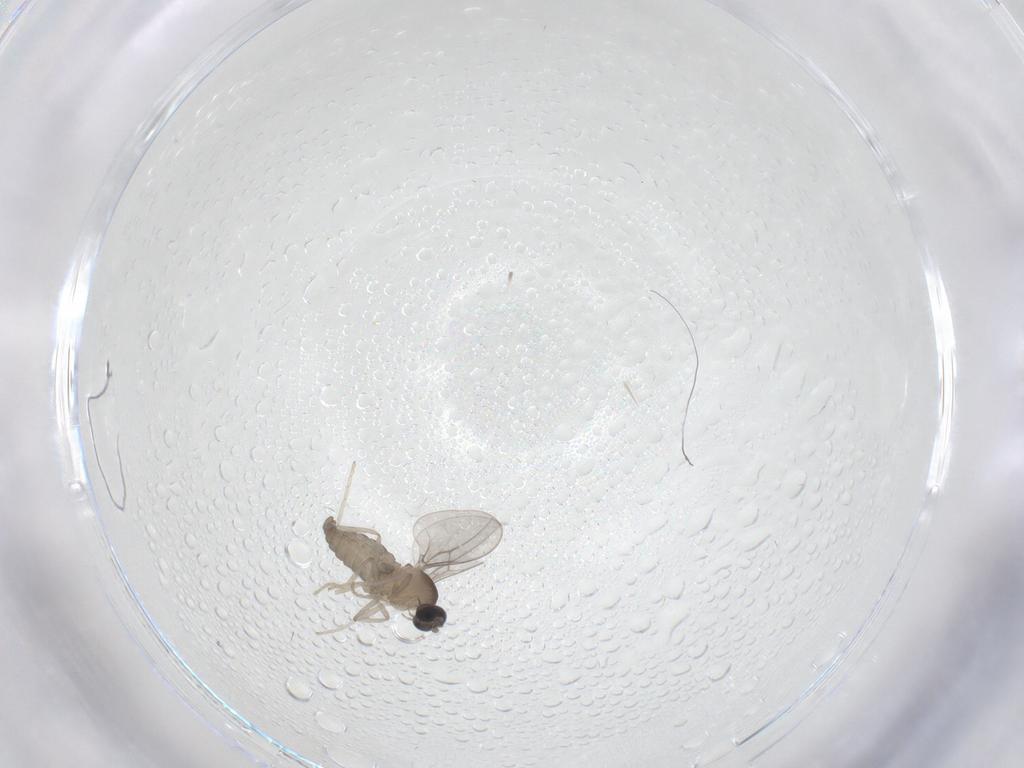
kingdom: Animalia
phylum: Arthropoda
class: Insecta
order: Diptera
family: Cecidomyiidae
